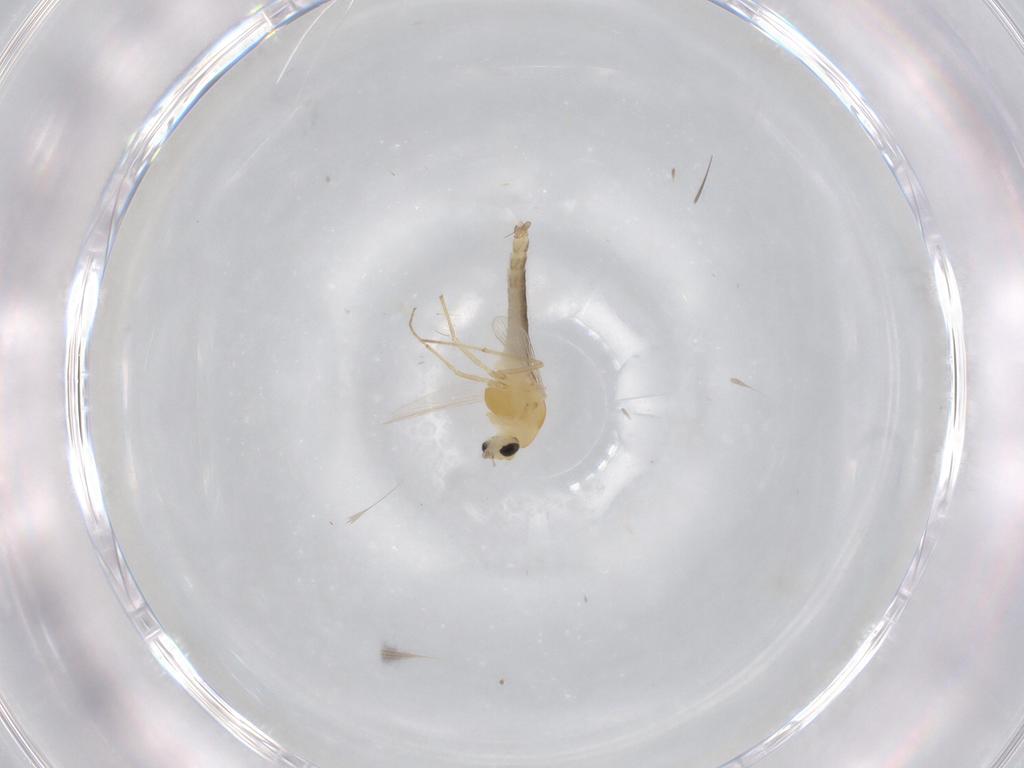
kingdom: Animalia
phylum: Arthropoda
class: Insecta
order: Diptera
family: Chironomidae
